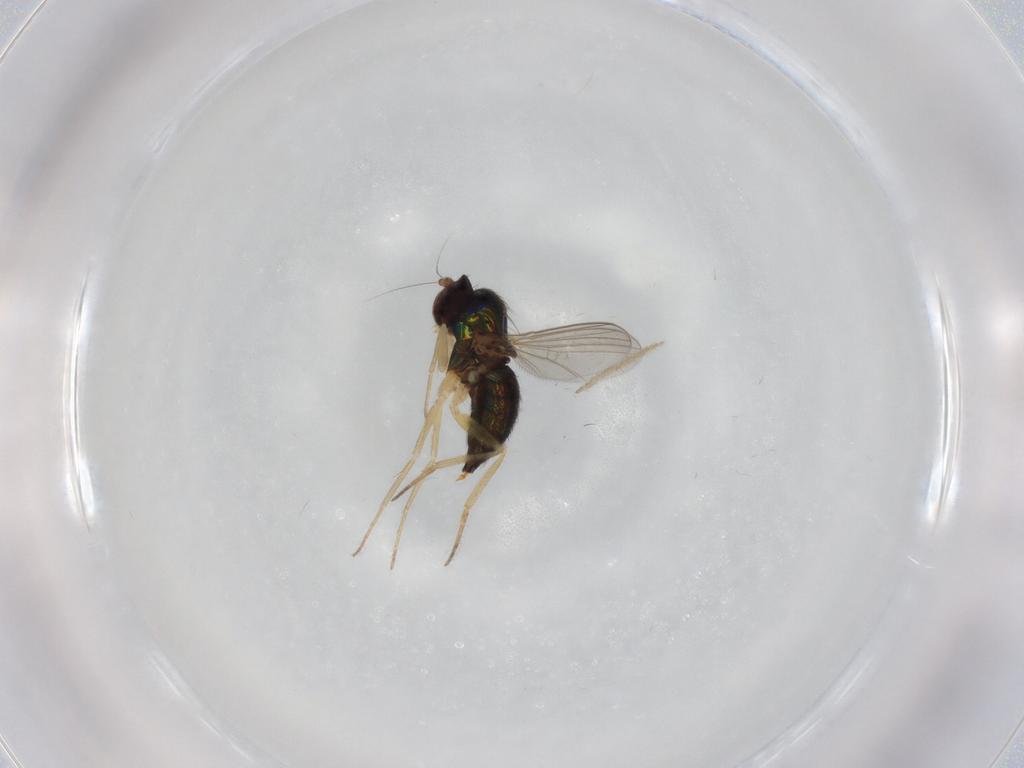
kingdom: Animalia
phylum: Arthropoda
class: Insecta
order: Diptera
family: Dolichopodidae
